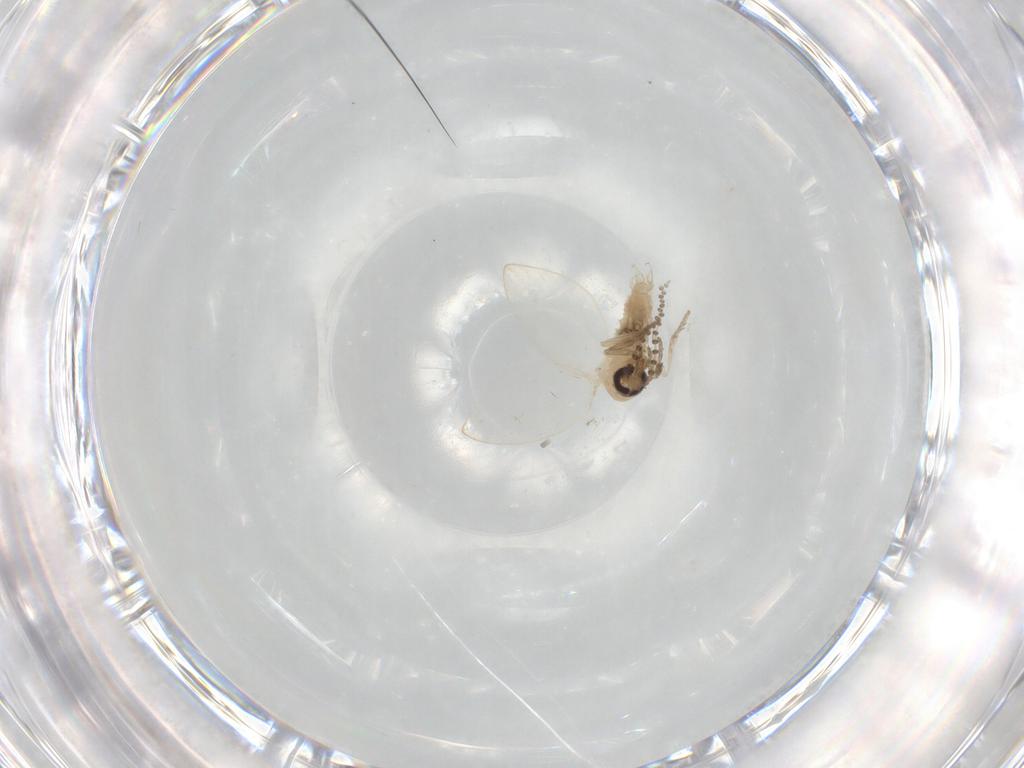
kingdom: Animalia
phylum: Arthropoda
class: Insecta
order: Diptera
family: Psychodidae
